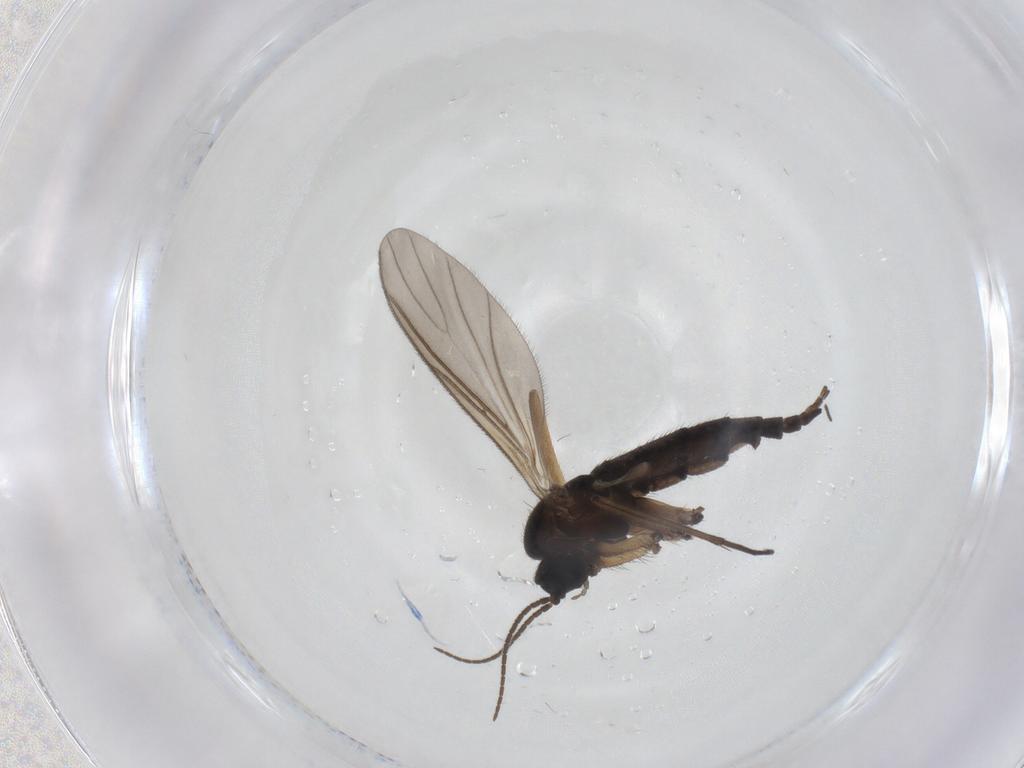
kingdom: Animalia
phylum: Arthropoda
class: Insecta
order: Diptera
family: Sciaridae
